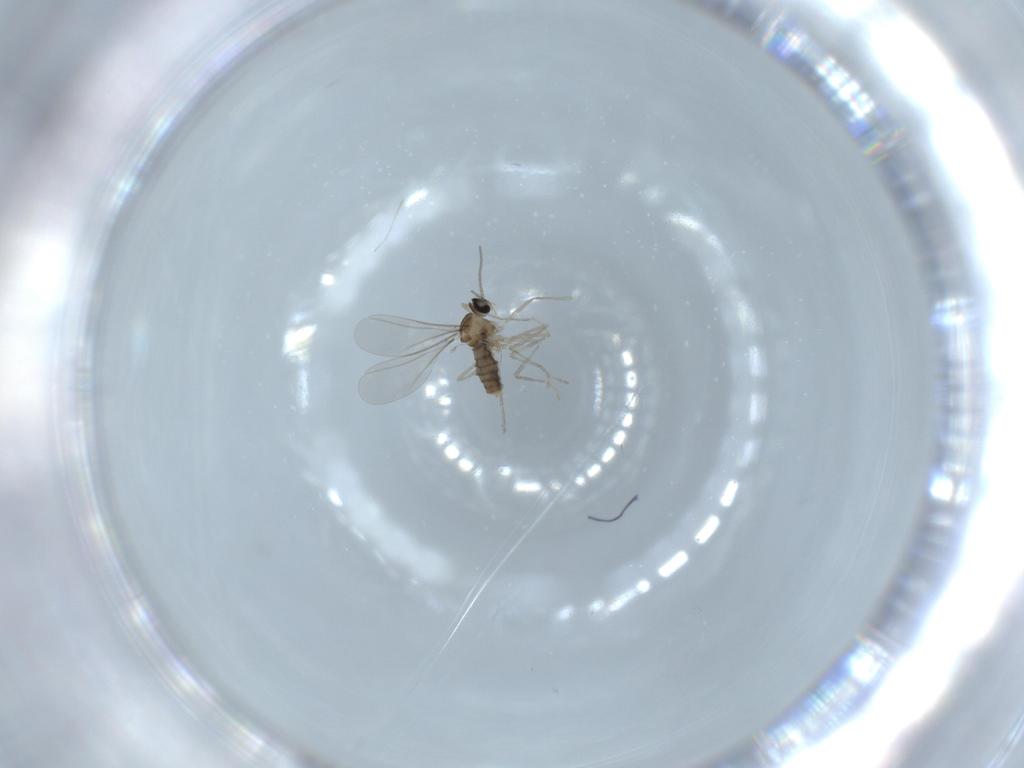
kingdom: Animalia
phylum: Arthropoda
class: Insecta
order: Diptera
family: Cecidomyiidae
